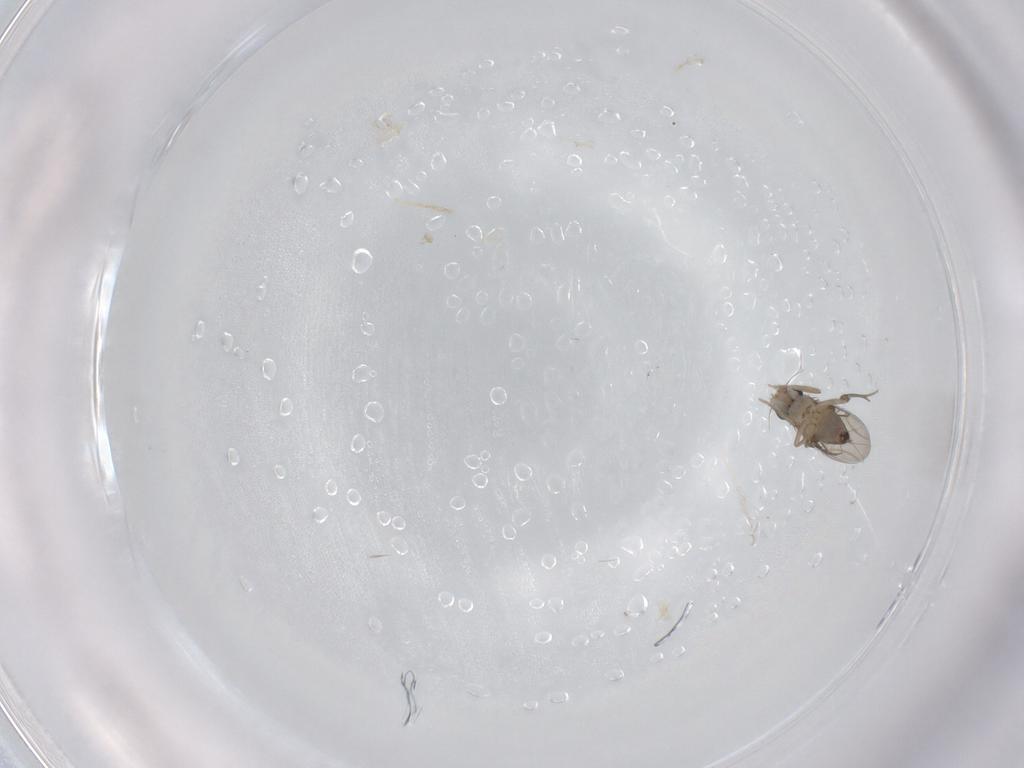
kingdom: Animalia
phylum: Arthropoda
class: Insecta
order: Diptera
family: Phoridae
